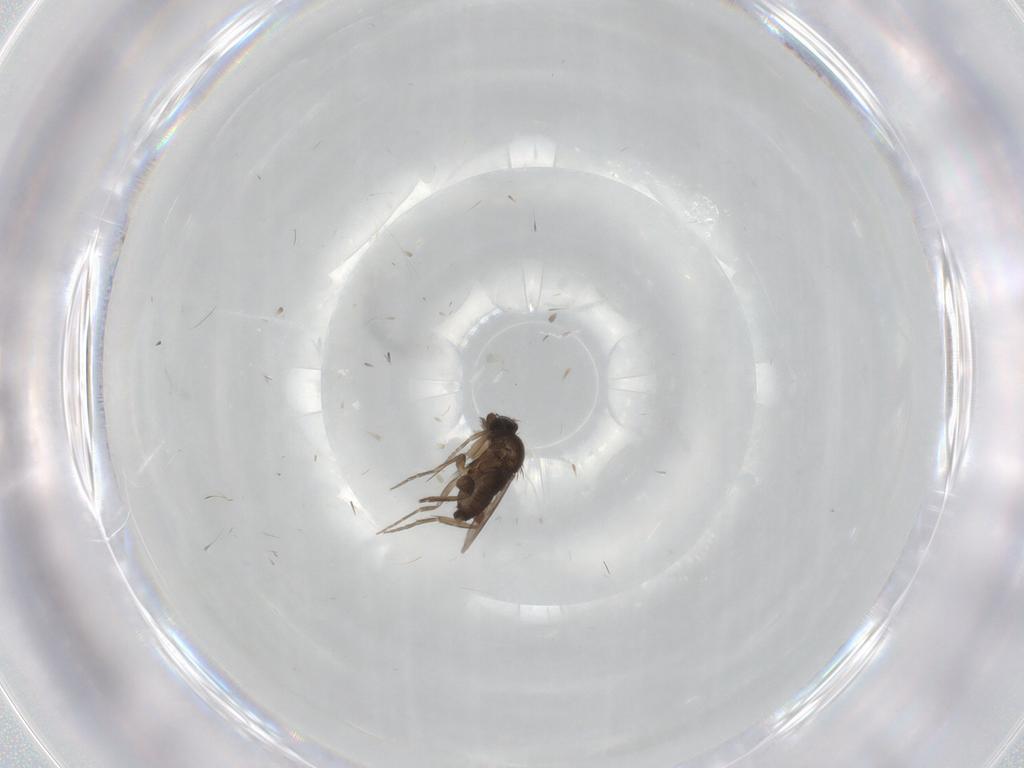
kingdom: Animalia
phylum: Arthropoda
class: Insecta
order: Diptera
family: Phoridae
